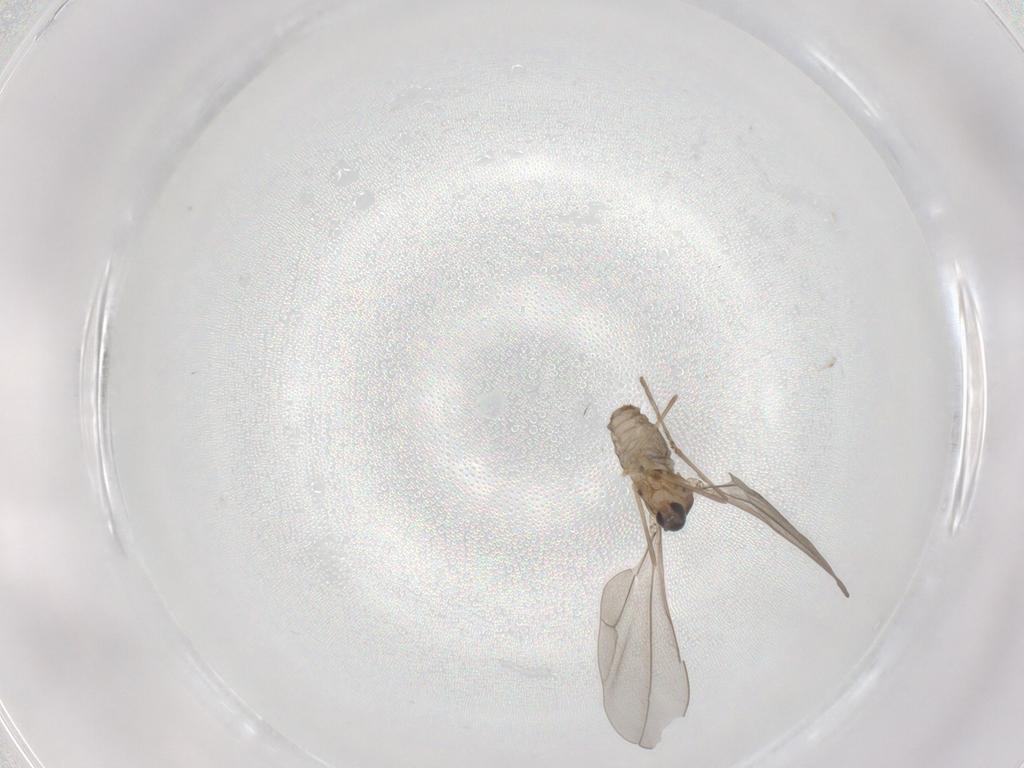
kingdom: Animalia
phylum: Arthropoda
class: Insecta
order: Diptera
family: Cecidomyiidae
